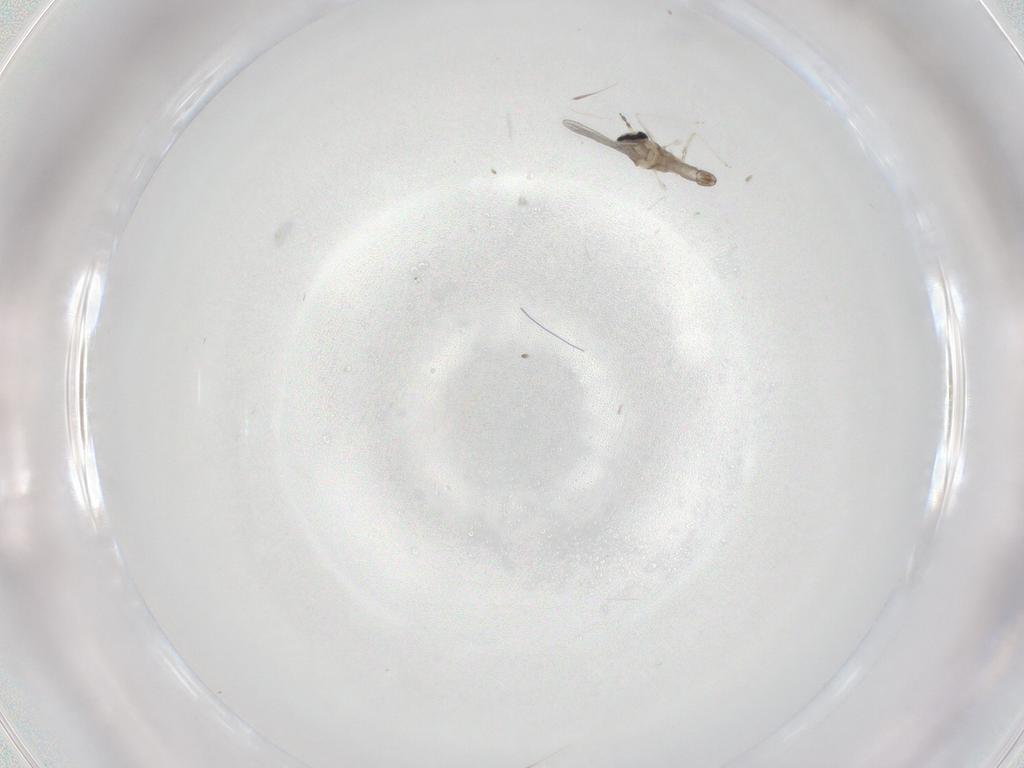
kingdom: Animalia
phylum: Arthropoda
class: Insecta
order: Diptera
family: Cecidomyiidae
